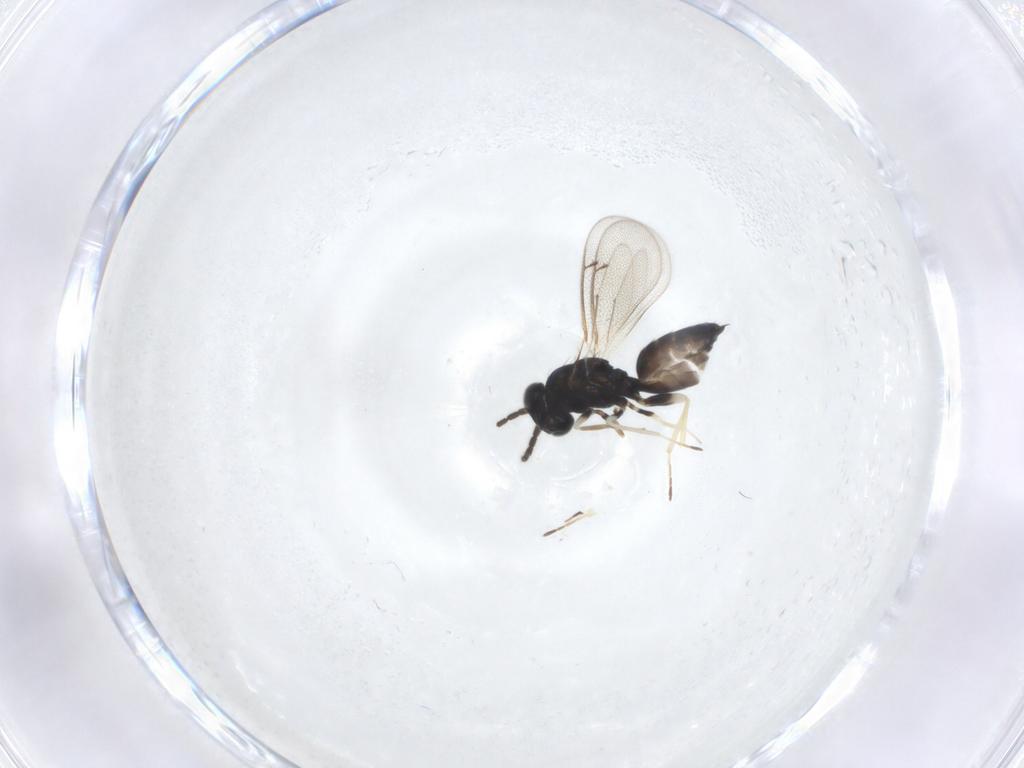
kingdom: Animalia
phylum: Arthropoda
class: Insecta
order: Hymenoptera
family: Eulophidae
